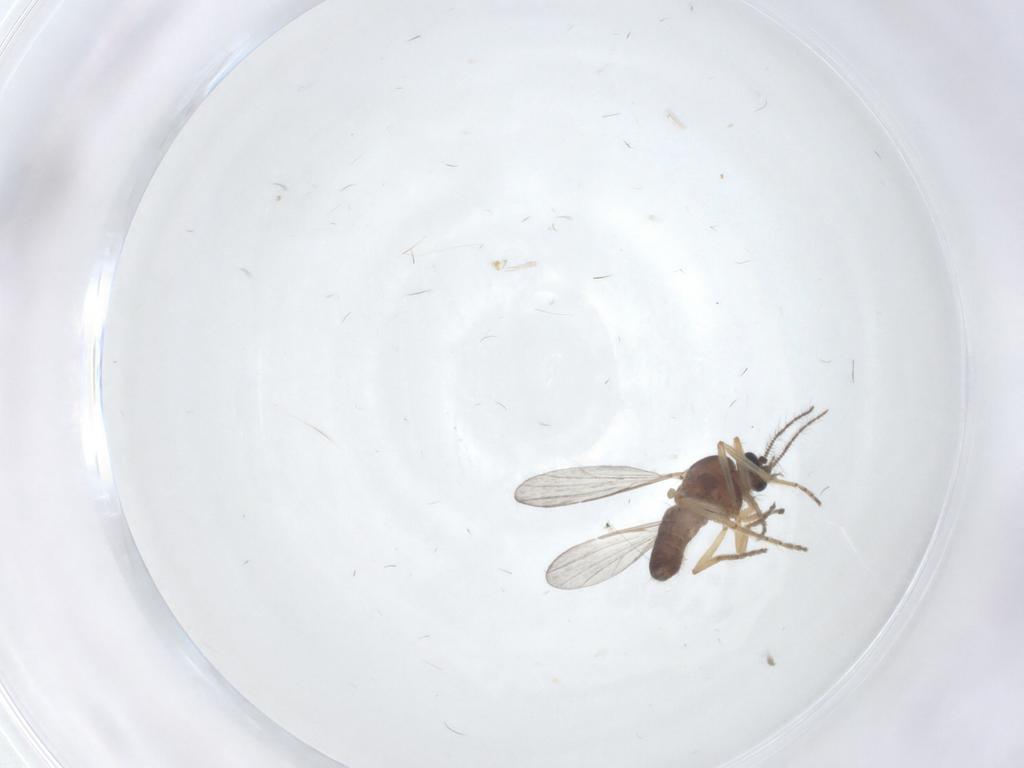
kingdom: Animalia
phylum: Arthropoda
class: Insecta
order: Diptera
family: Ceratopogonidae
